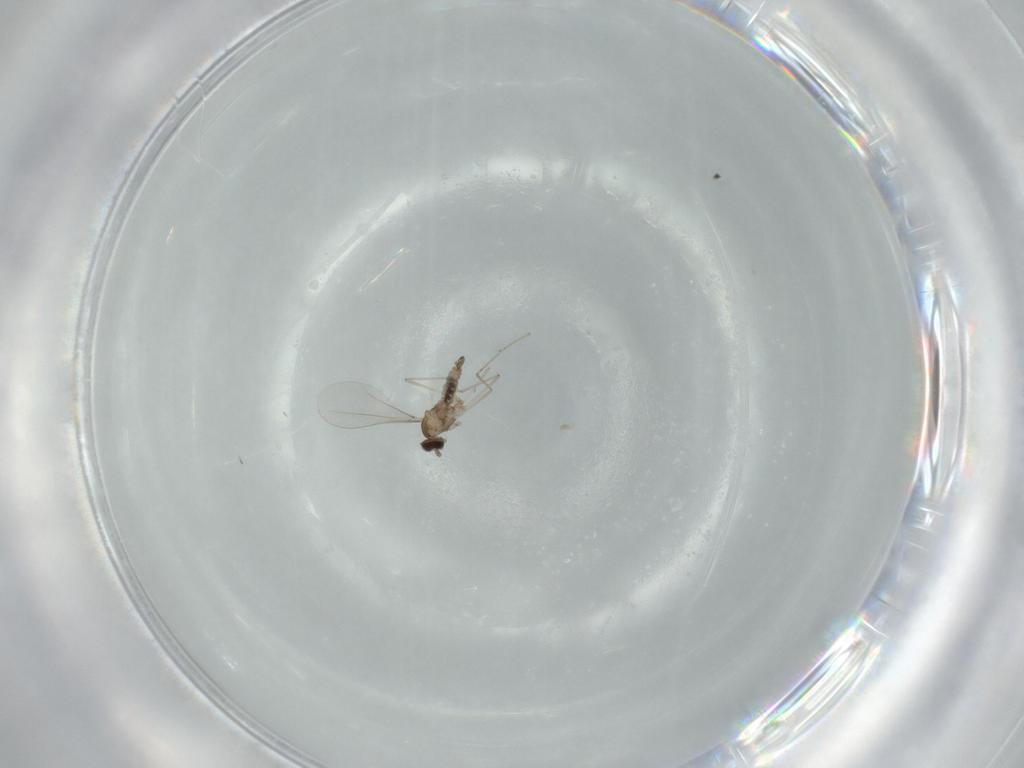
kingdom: Animalia
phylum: Arthropoda
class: Insecta
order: Diptera
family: Cecidomyiidae
